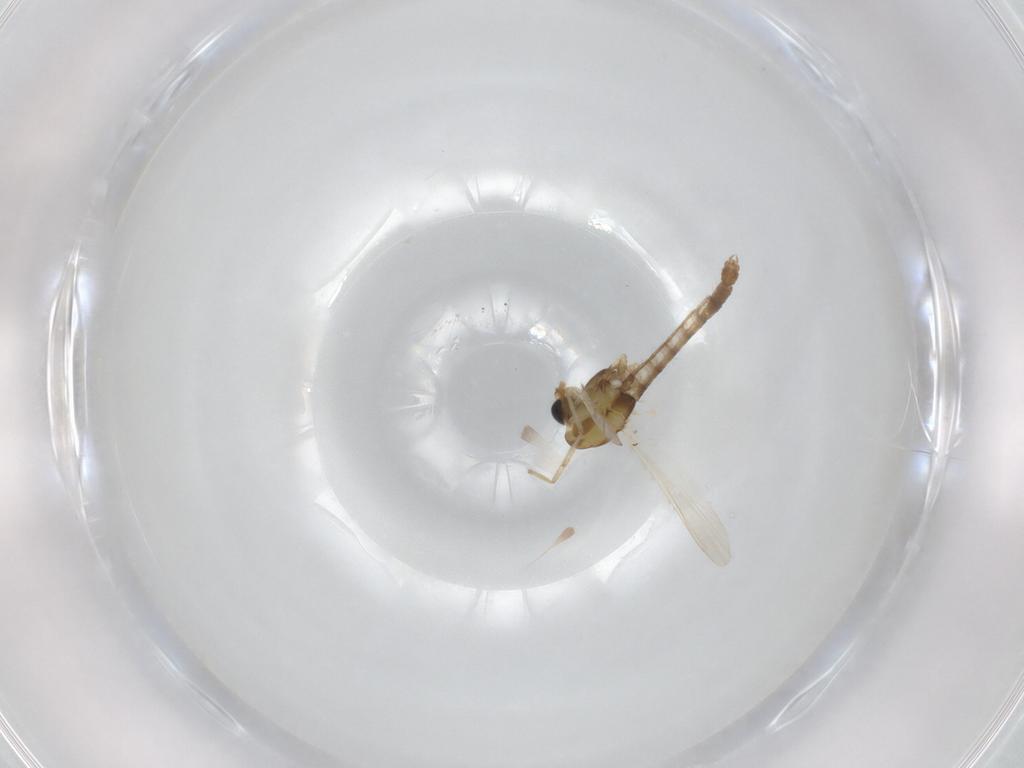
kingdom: Animalia
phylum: Arthropoda
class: Insecta
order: Diptera
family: Chironomidae
